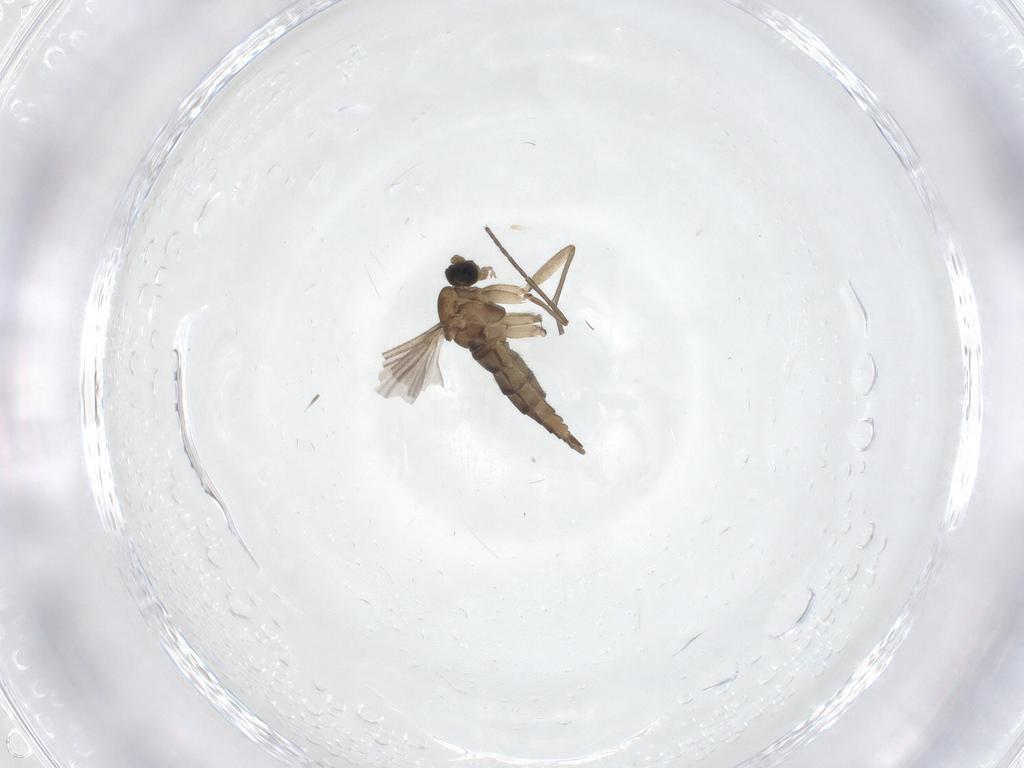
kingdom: Animalia
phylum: Arthropoda
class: Insecta
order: Diptera
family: Sciaridae
